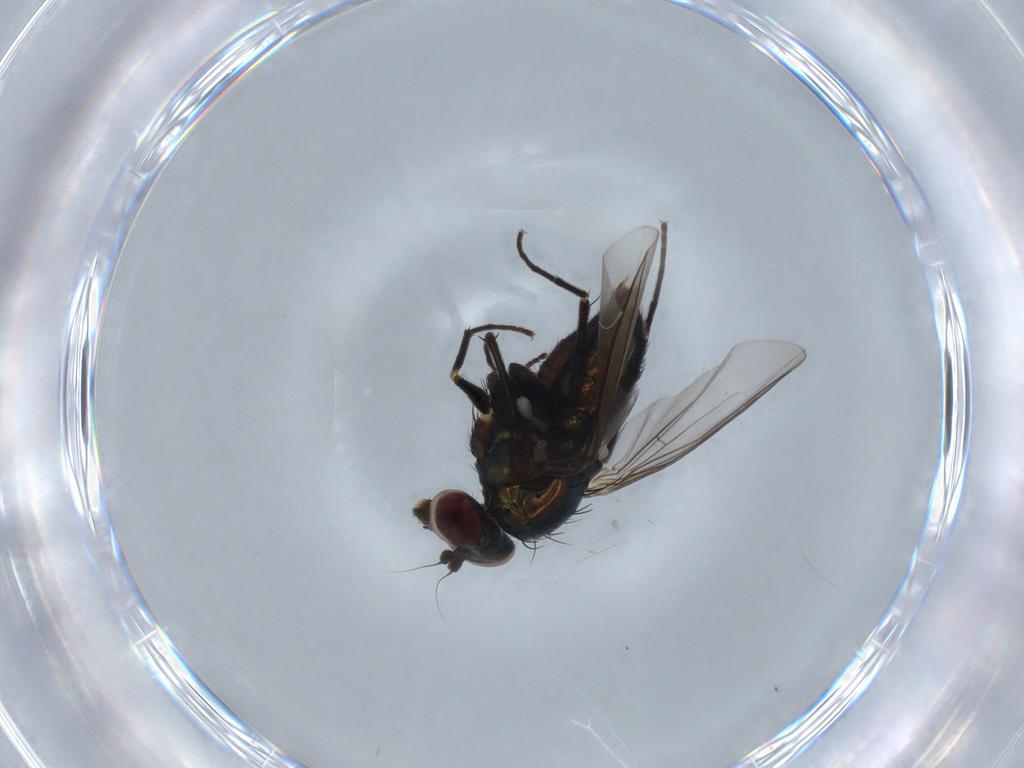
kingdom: Animalia
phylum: Arthropoda
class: Insecta
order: Diptera
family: Dolichopodidae
